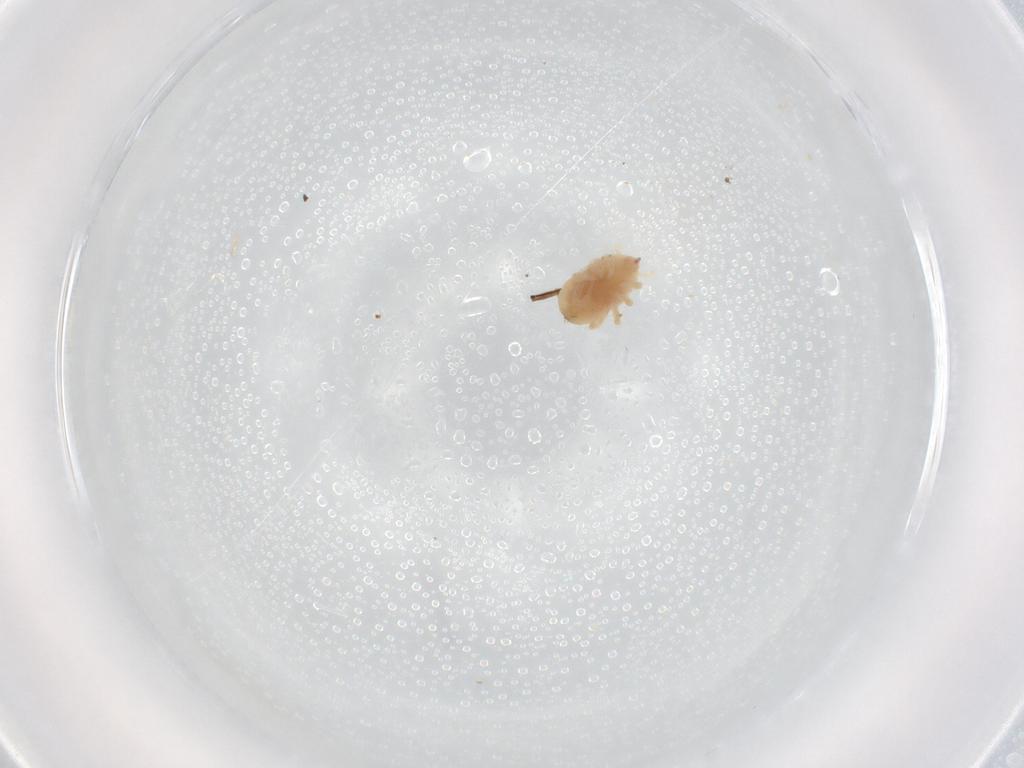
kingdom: Animalia
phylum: Arthropoda
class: Arachnida
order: Trombidiformes
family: Bdellidae
